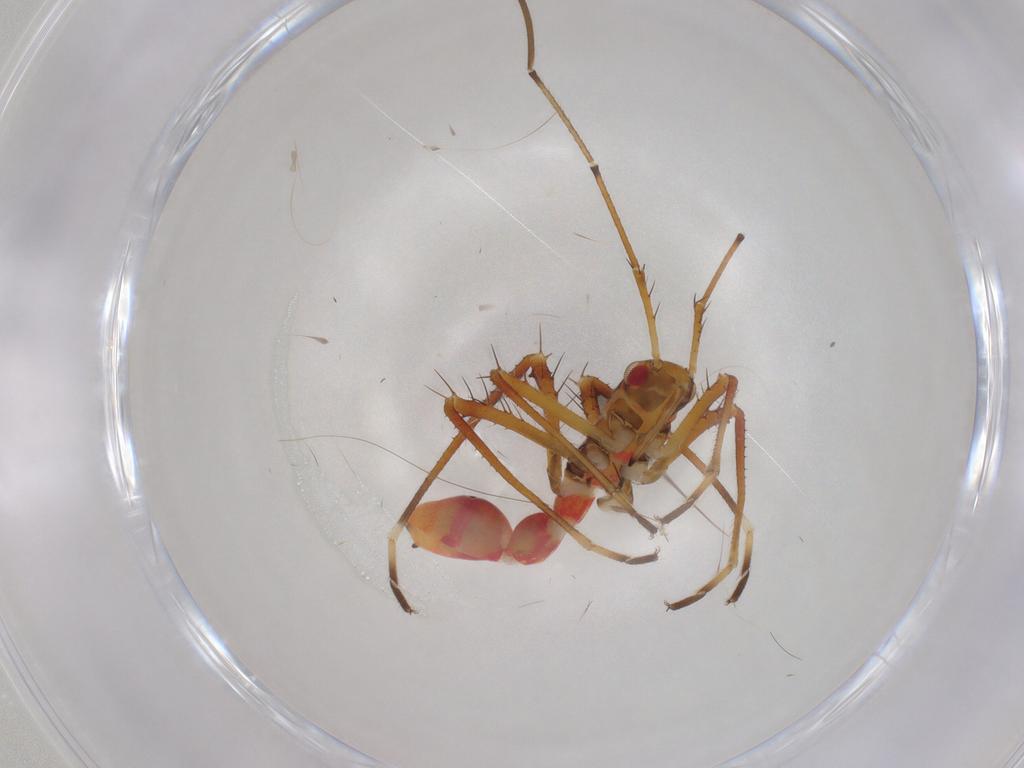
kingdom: Animalia
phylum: Arthropoda
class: Insecta
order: Hemiptera
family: Colobathristidae
